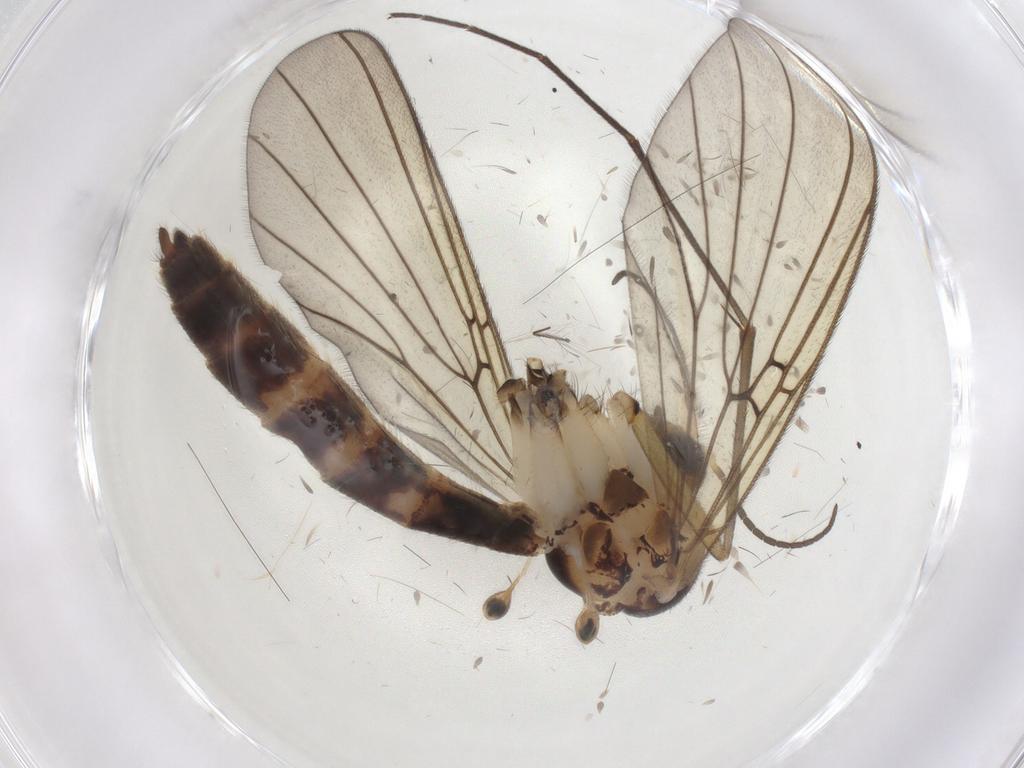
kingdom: Animalia
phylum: Arthropoda
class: Insecta
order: Diptera
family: Mycetophilidae
